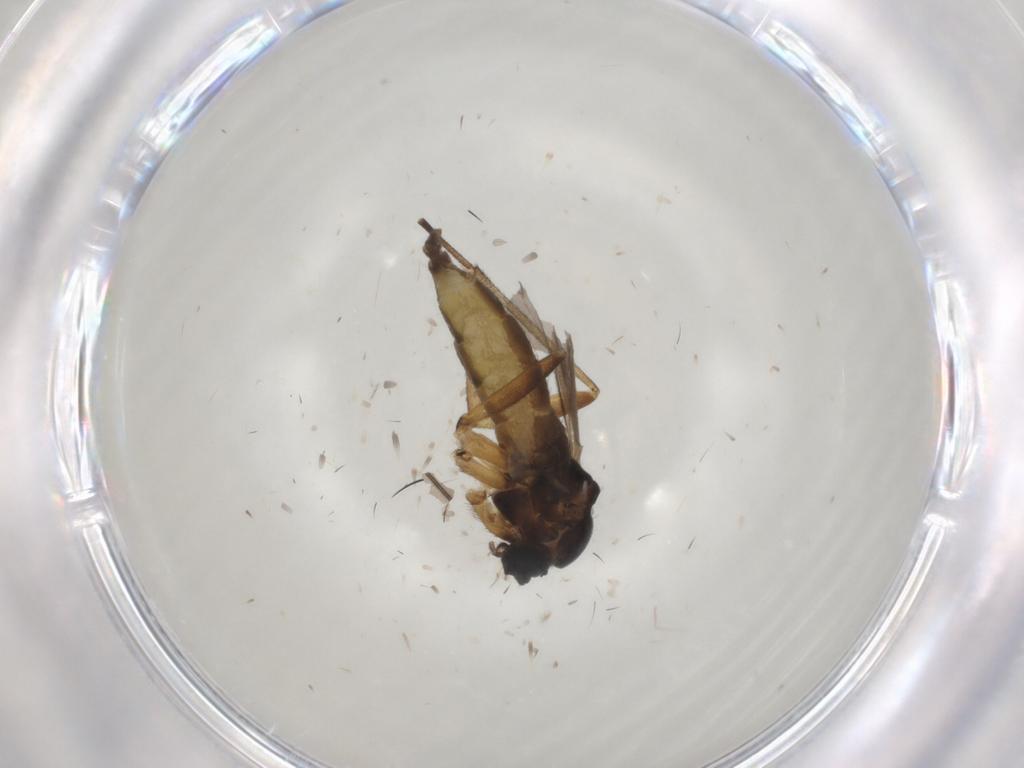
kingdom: Animalia
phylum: Arthropoda
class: Insecta
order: Diptera
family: Sciaridae
